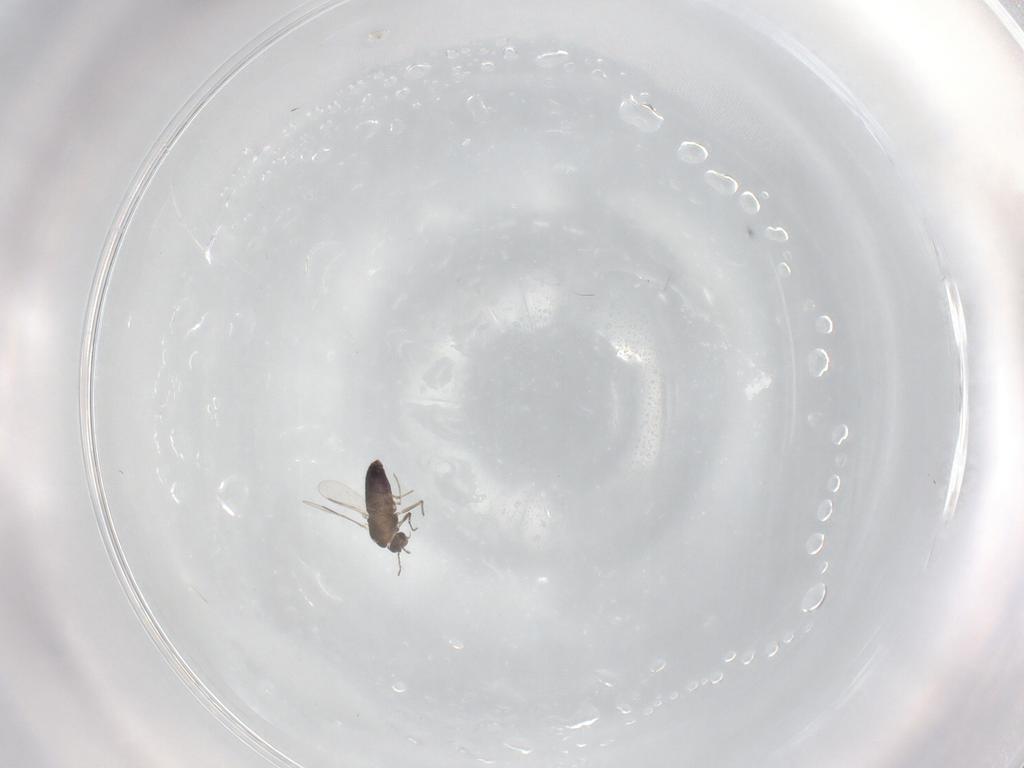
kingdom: Animalia
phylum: Arthropoda
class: Insecta
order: Diptera
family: Chironomidae
